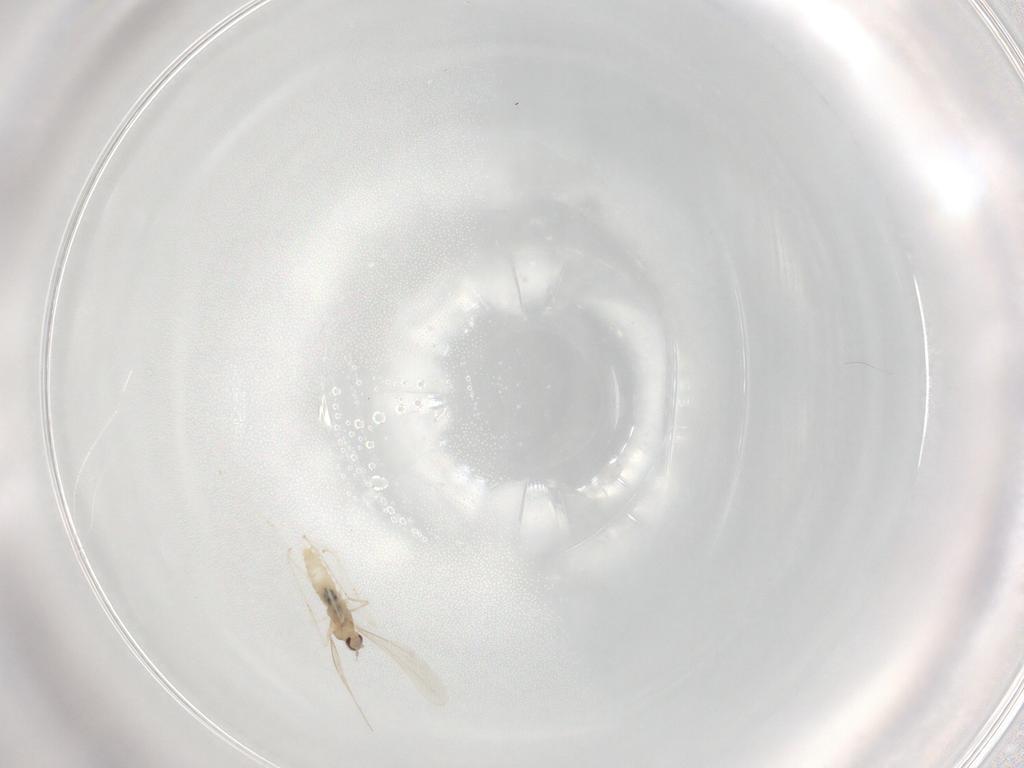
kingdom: Animalia
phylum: Arthropoda
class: Insecta
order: Diptera
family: Cecidomyiidae
